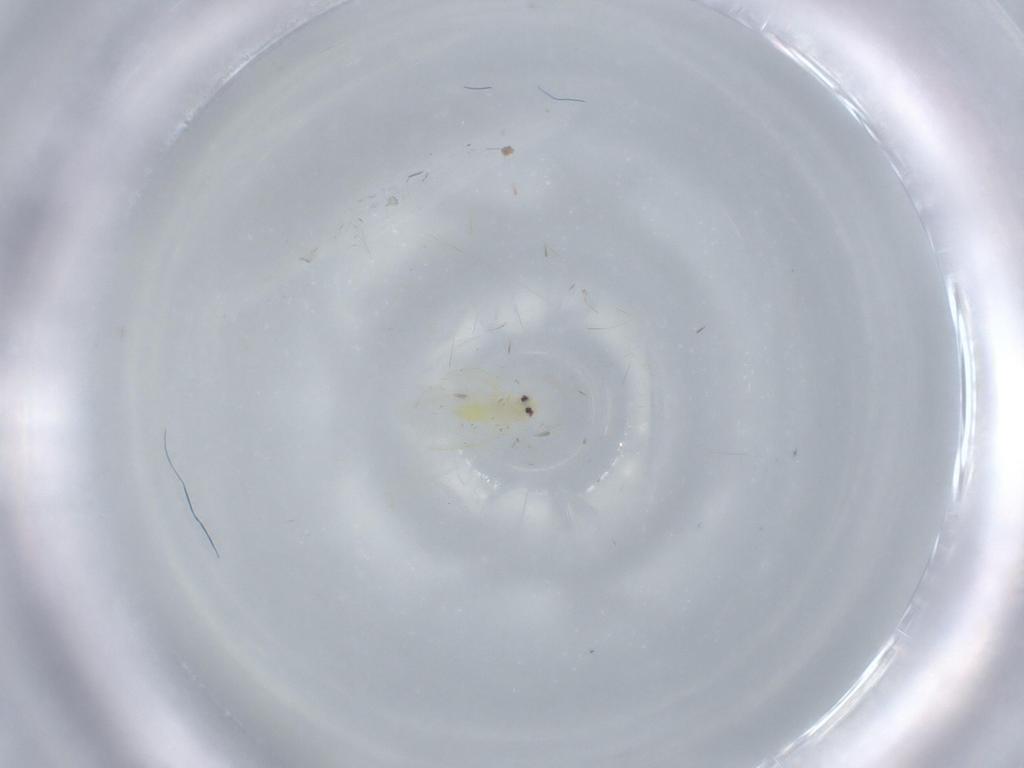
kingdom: Animalia
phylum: Arthropoda
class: Insecta
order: Hemiptera
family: Aleyrodidae
